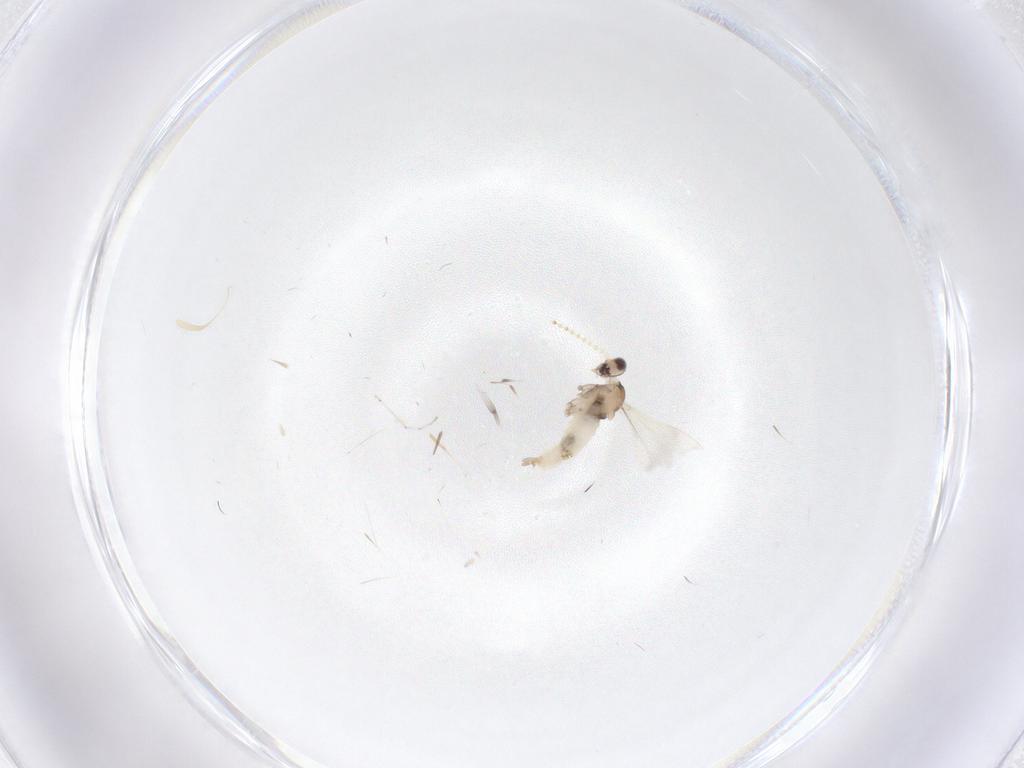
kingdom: Animalia
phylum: Arthropoda
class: Insecta
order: Diptera
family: Cecidomyiidae
